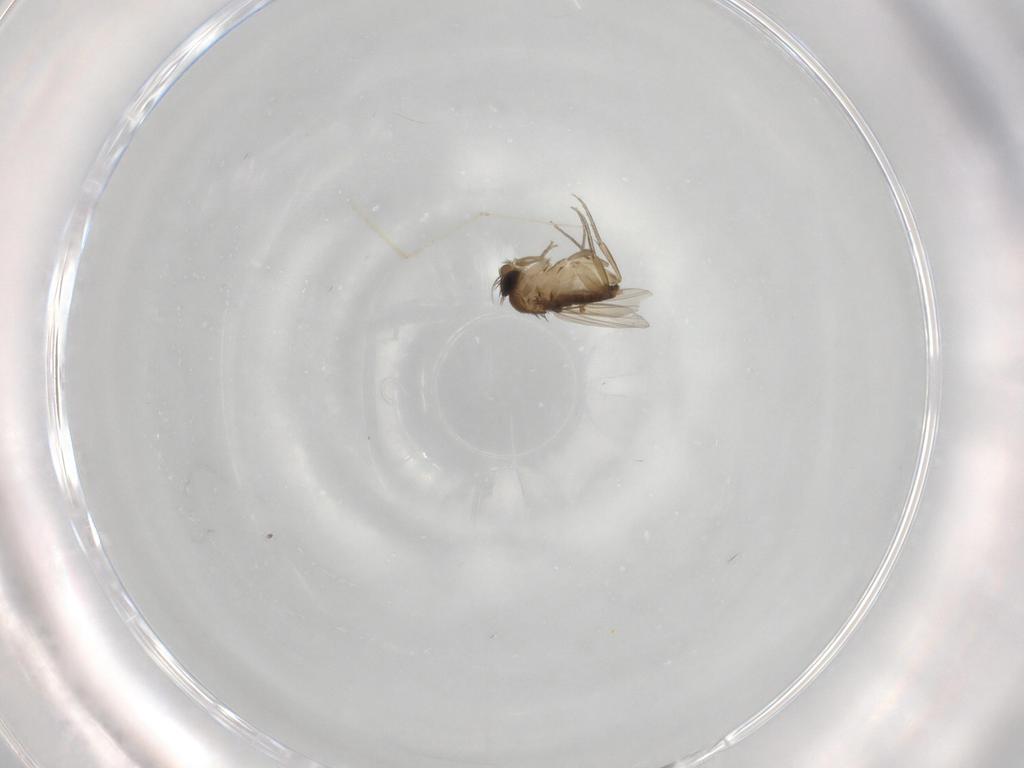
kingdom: Animalia
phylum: Arthropoda
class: Insecta
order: Diptera
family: Phoridae
